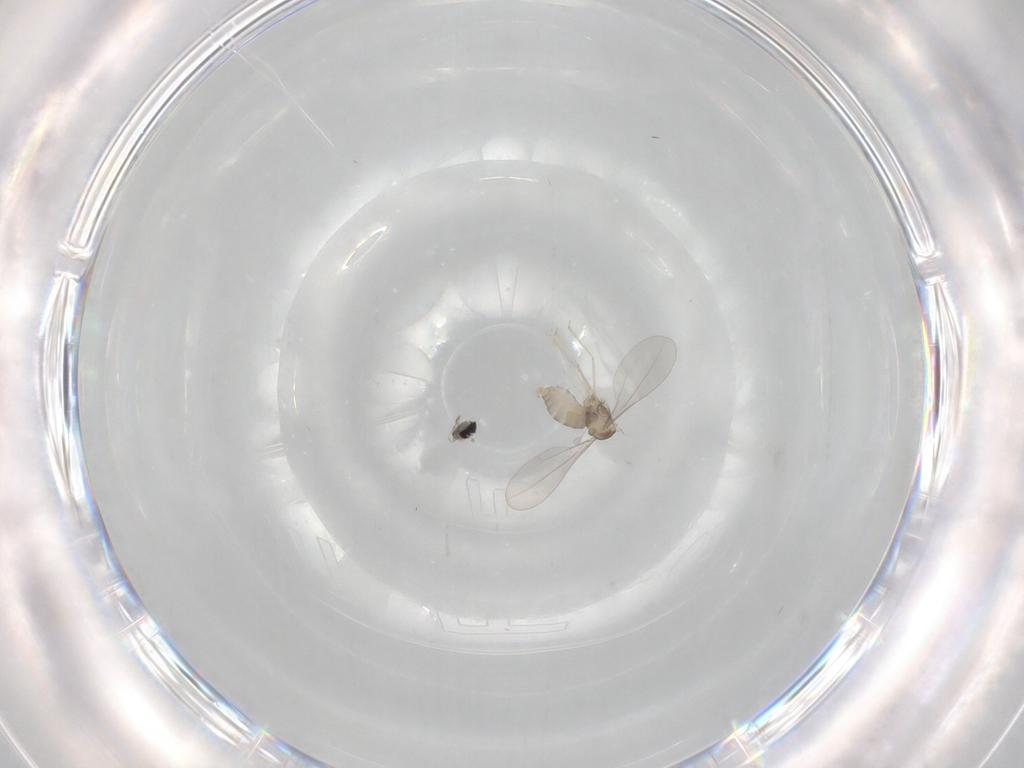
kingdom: Animalia
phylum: Arthropoda
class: Insecta
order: Diptera
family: Psychodidae
